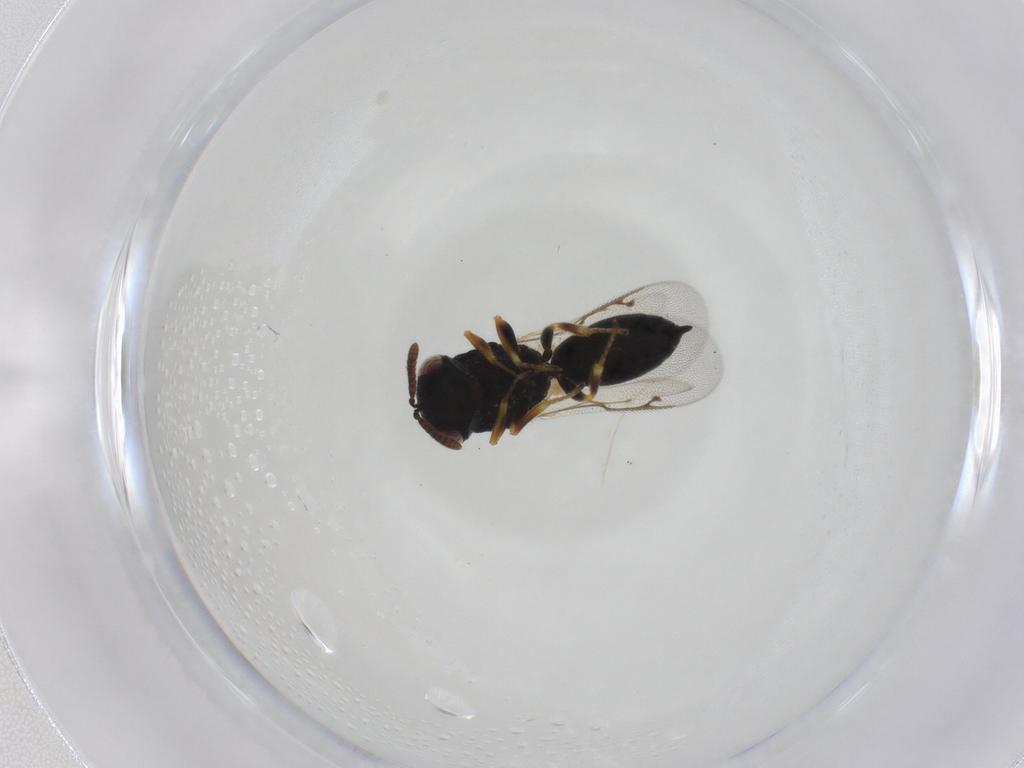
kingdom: Animalia
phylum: Arthropoda
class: Insecta
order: Hymenoptera
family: Eurytomidae
